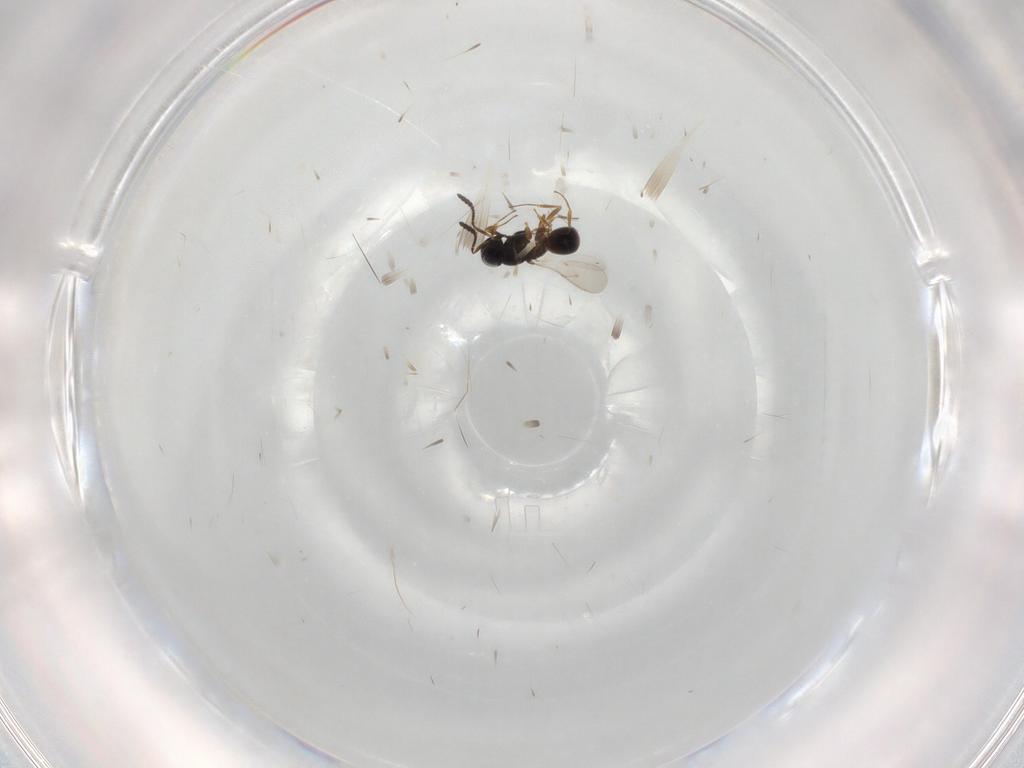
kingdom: Animalia
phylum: Arthropoda
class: Insecta
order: Hymenoptera
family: Scelionidae
